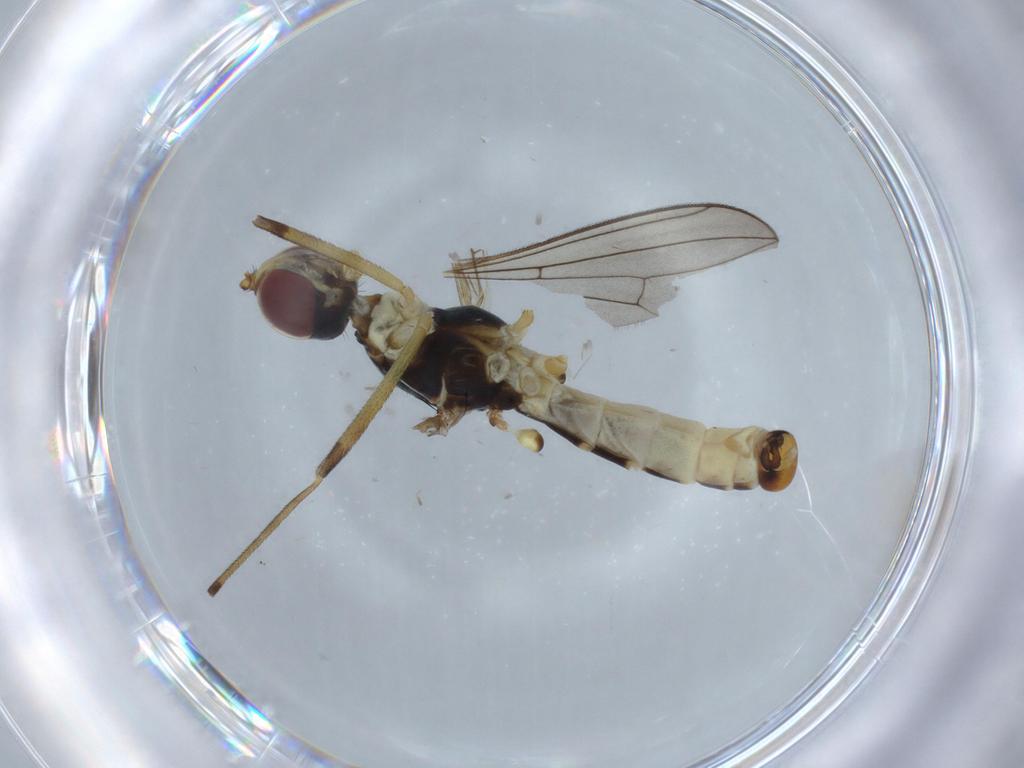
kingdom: Animalia
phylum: Arthropoda
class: Insecta
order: Diptera
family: Micropezidae
